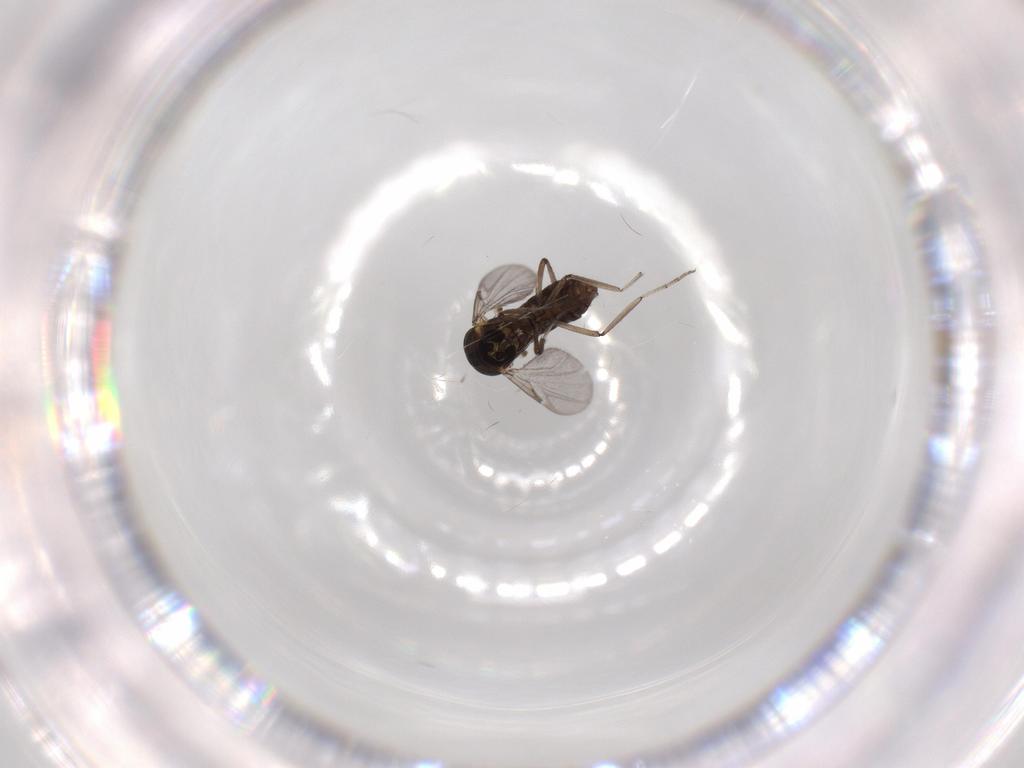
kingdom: Animalia
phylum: Arthropoda
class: Insecta
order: Diptera
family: Ceratopogonidae
